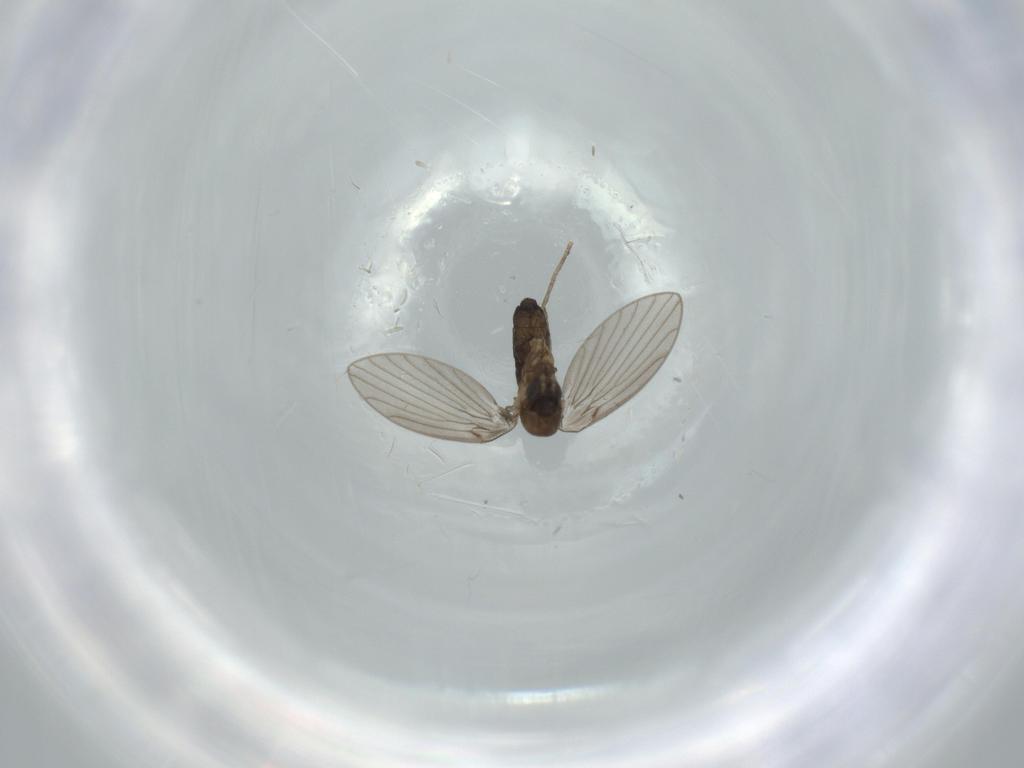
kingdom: Animalia
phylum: Arthropoda
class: Insecta
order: Diptera
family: Psychodidae
